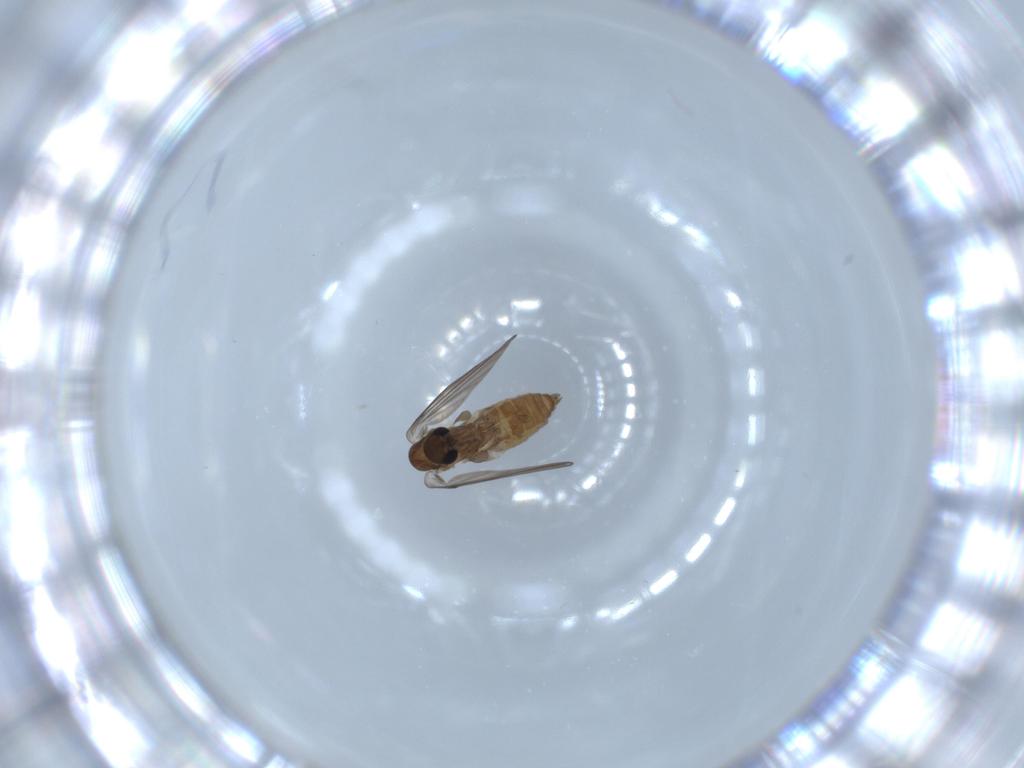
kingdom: Animalia
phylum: Arthropoda
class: Insecta
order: Diptera
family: Psychodidae
